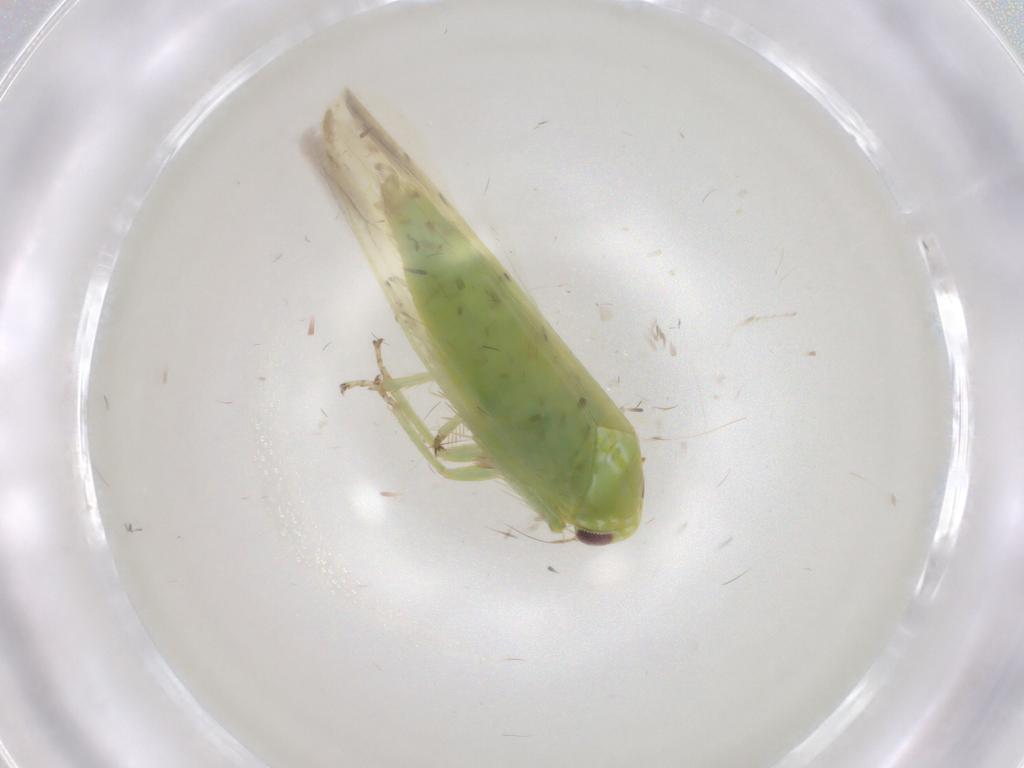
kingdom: Animalia
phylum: Arthropoda
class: Insecta
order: Hemiptera
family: Cicadellidae
